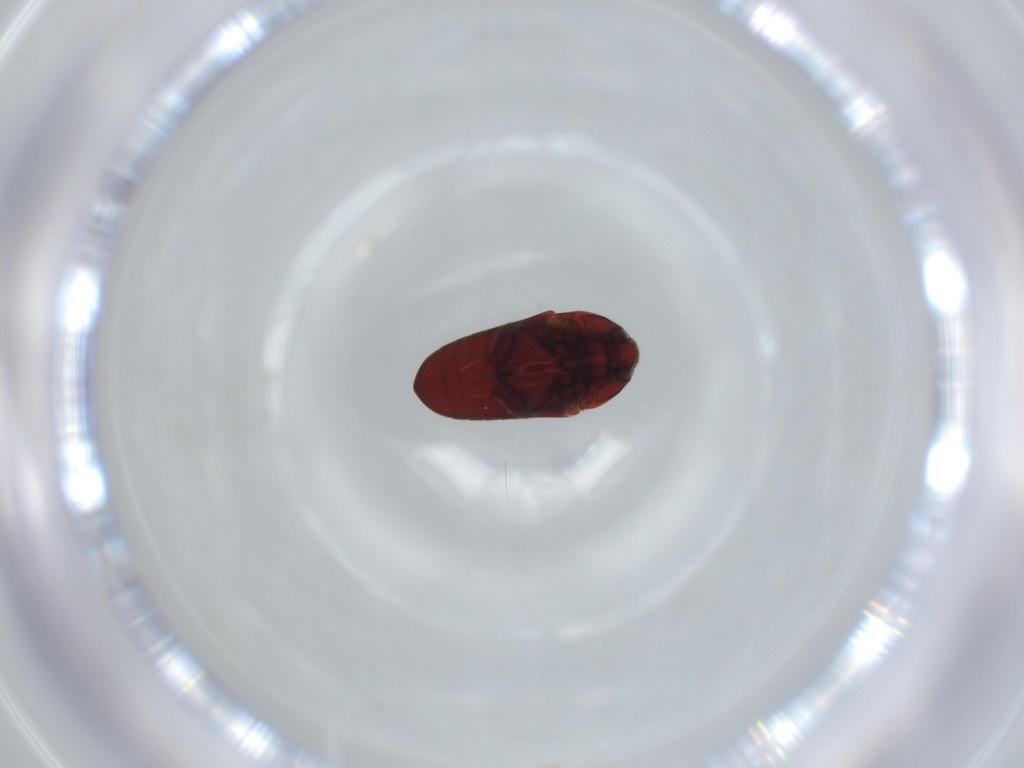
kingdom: Animalia
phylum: Arthropoda
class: Insecta
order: Coleoptera
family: Throscidae
